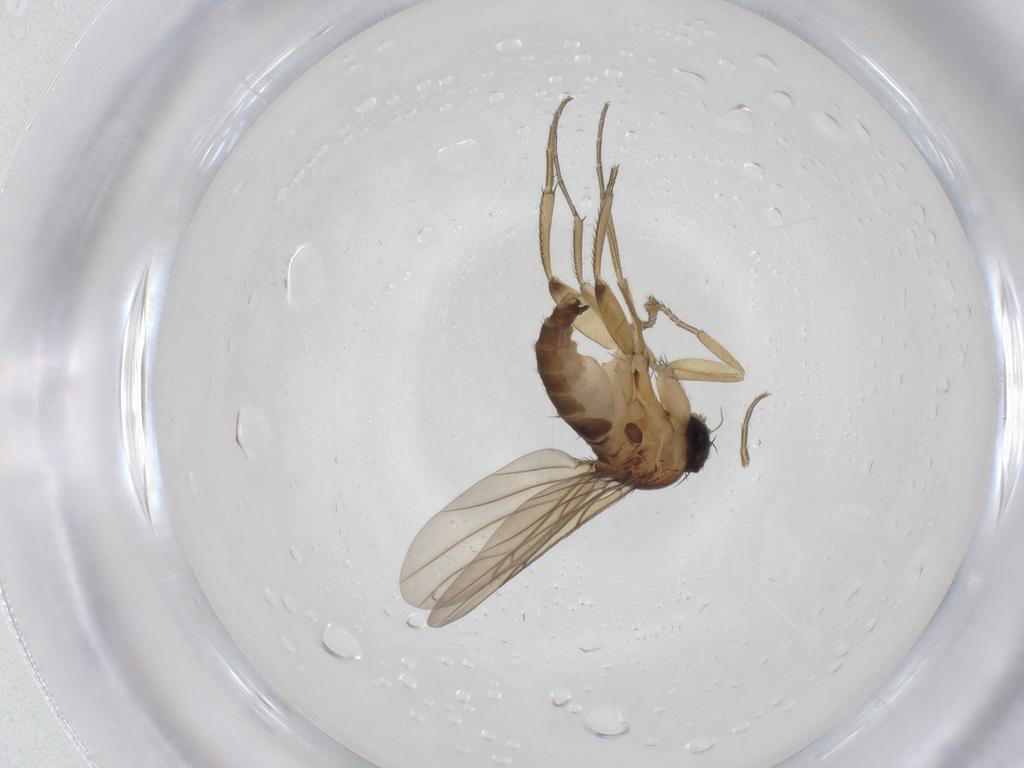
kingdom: Animalia
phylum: Arthropoda
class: Insecta
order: Diptera
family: Phoridae
